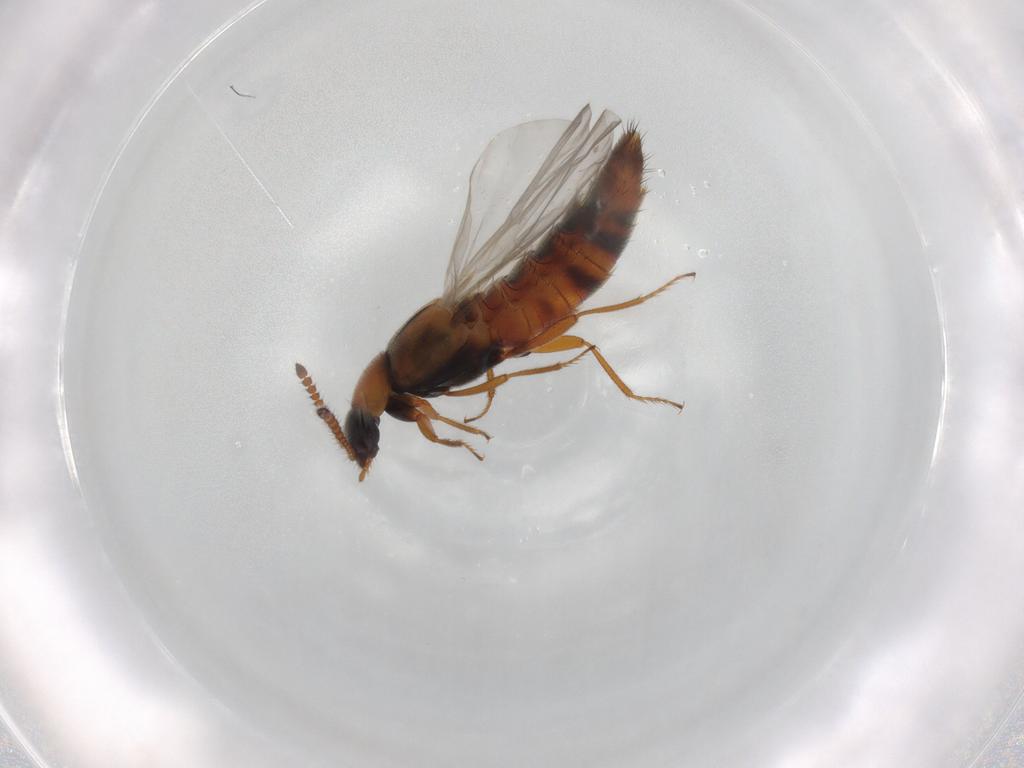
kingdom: Animalia
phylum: Arthropoda
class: Insecta
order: Coleoptera
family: Staphylinidae
